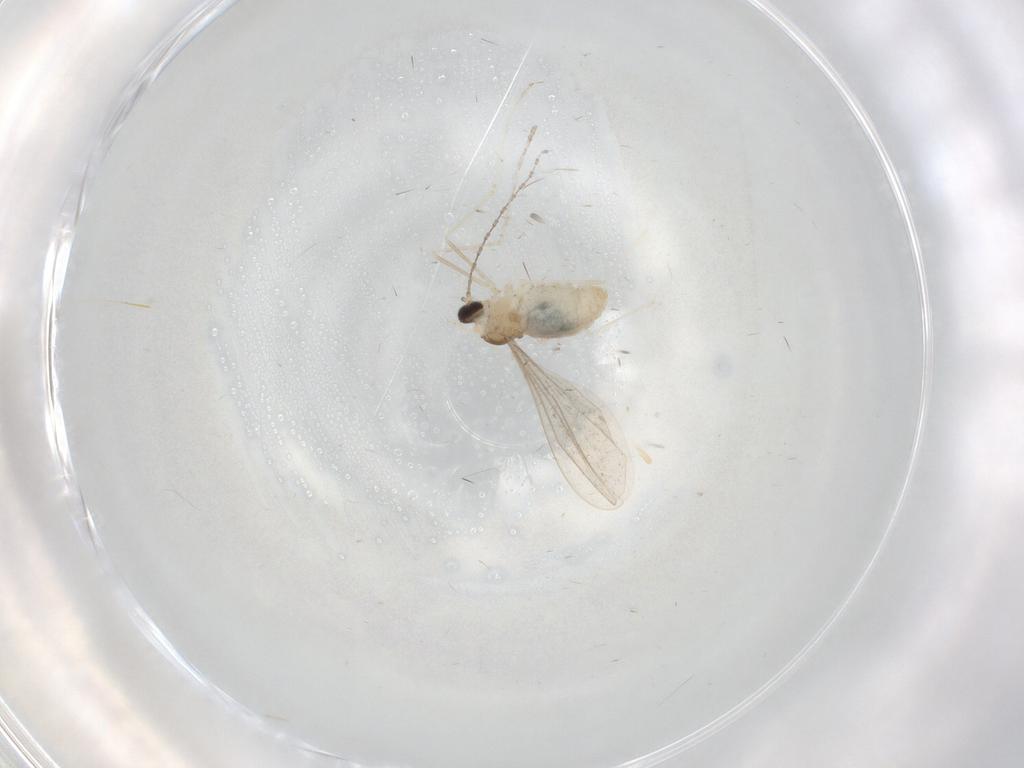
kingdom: Animalia
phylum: Arthropoda
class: Insecta
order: Diptera
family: Cecidomyiidae
